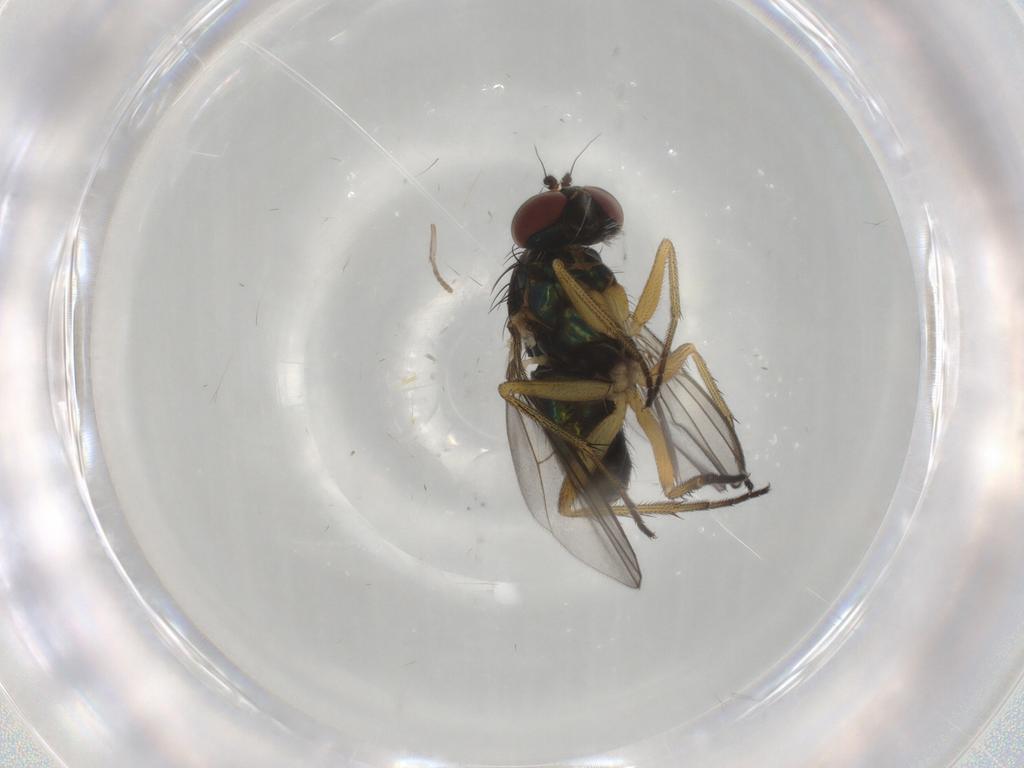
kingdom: Animalia
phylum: Arthropoda
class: Insecta
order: Diptera
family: Dolichopodidae
